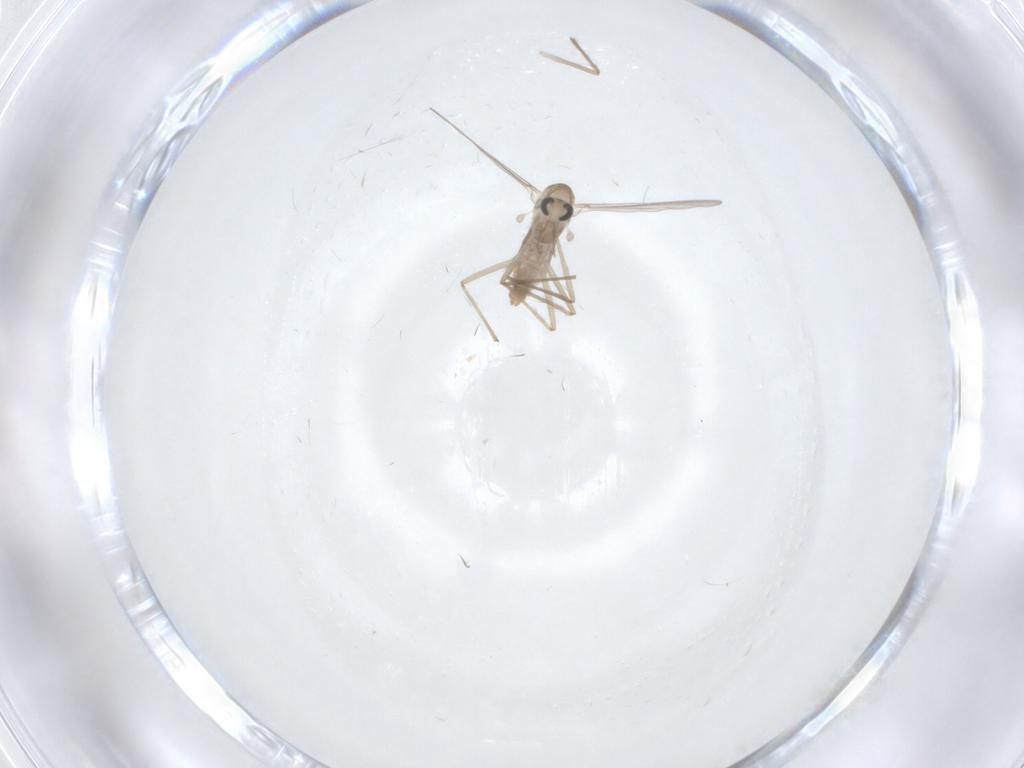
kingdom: Animalia
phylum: Arthropoda
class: Insecta
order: Diptera
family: Chironomidae
